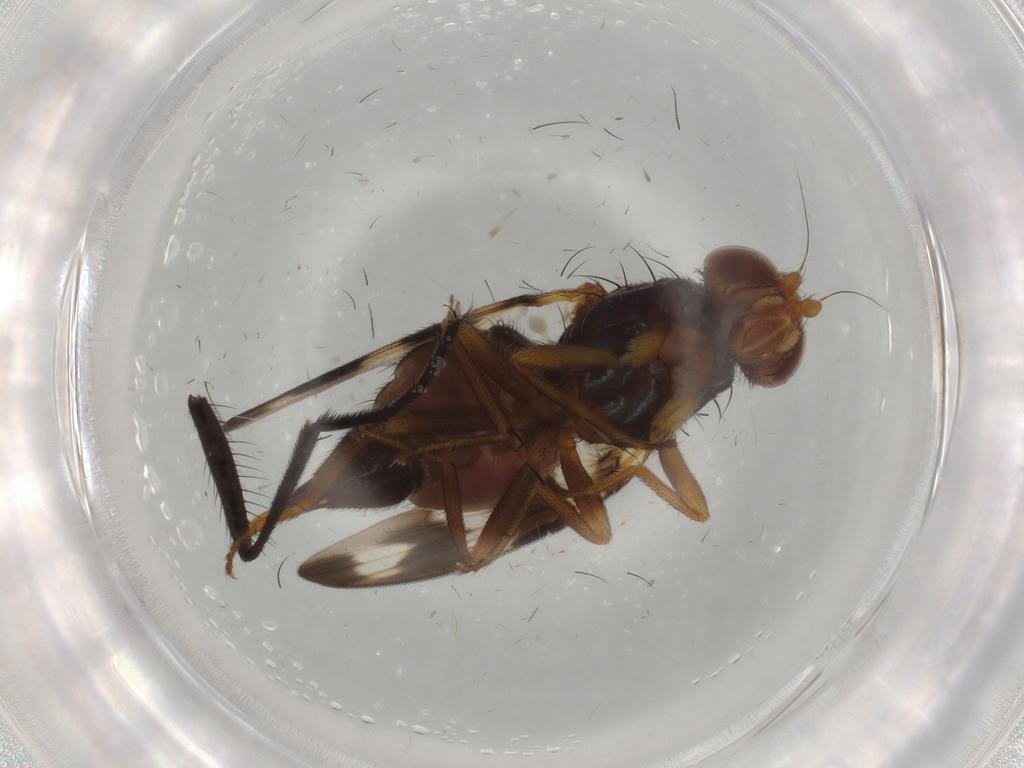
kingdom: Animalia
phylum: Arthropoda
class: Insecta
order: Diptera
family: Muscidae
